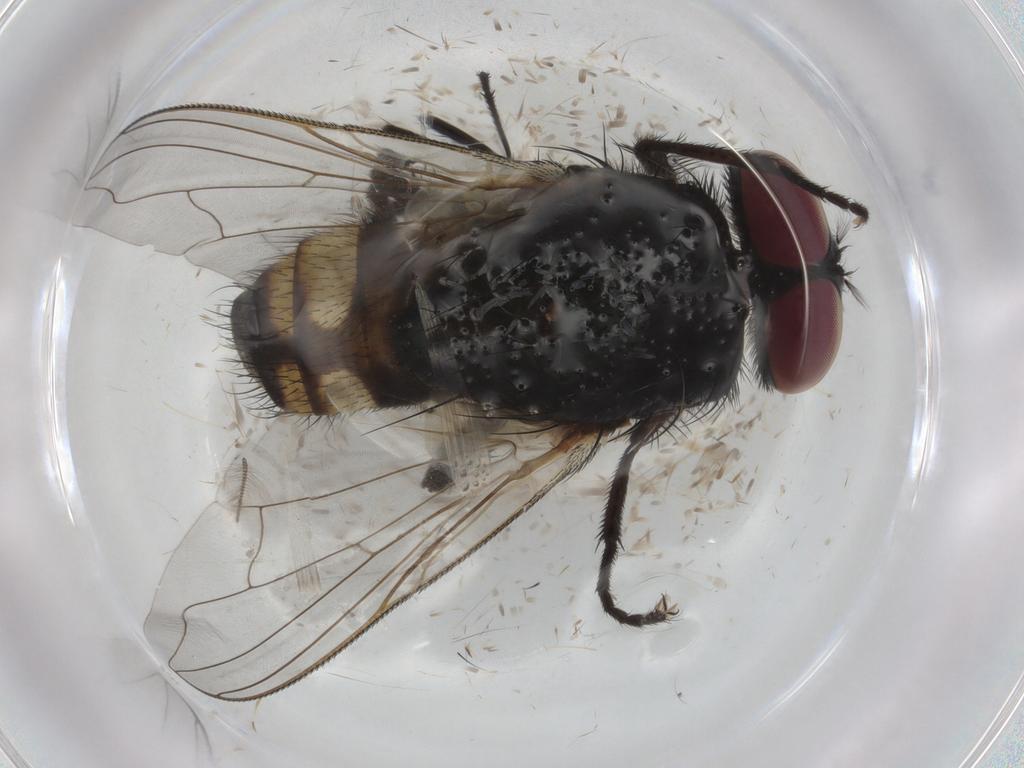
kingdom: Animalia
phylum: Arthropoda
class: Insecta
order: Diptera
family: Muscidae
